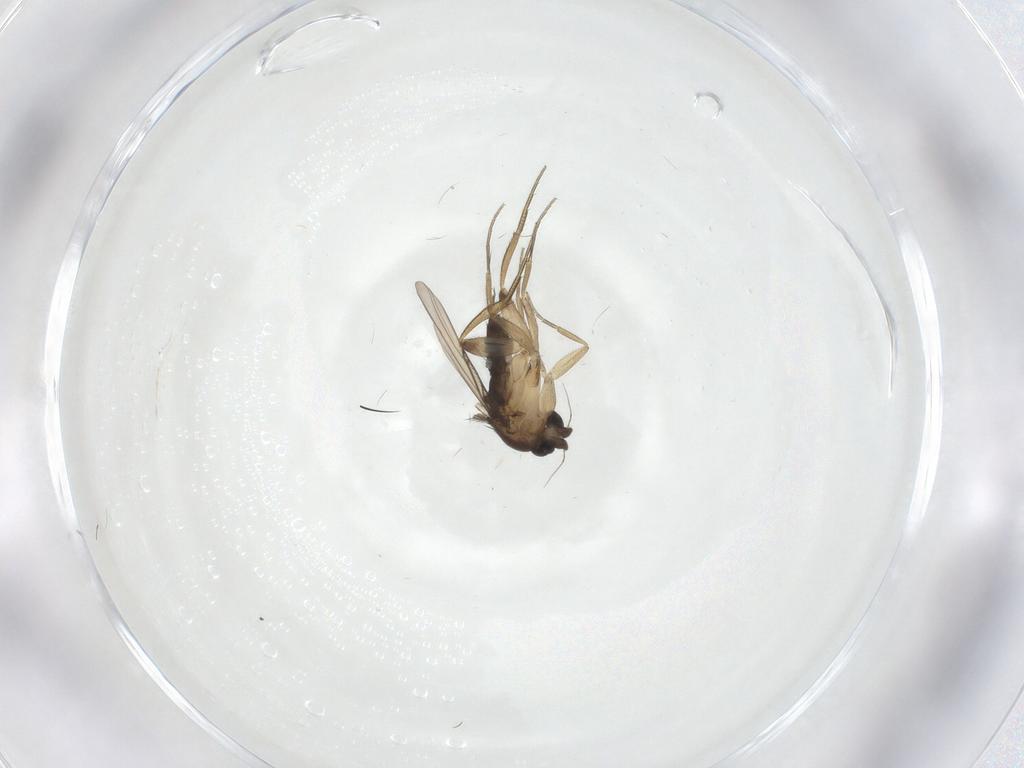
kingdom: Animalia
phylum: Arthropoda
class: Insecta
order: Diptera
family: Phoridae
